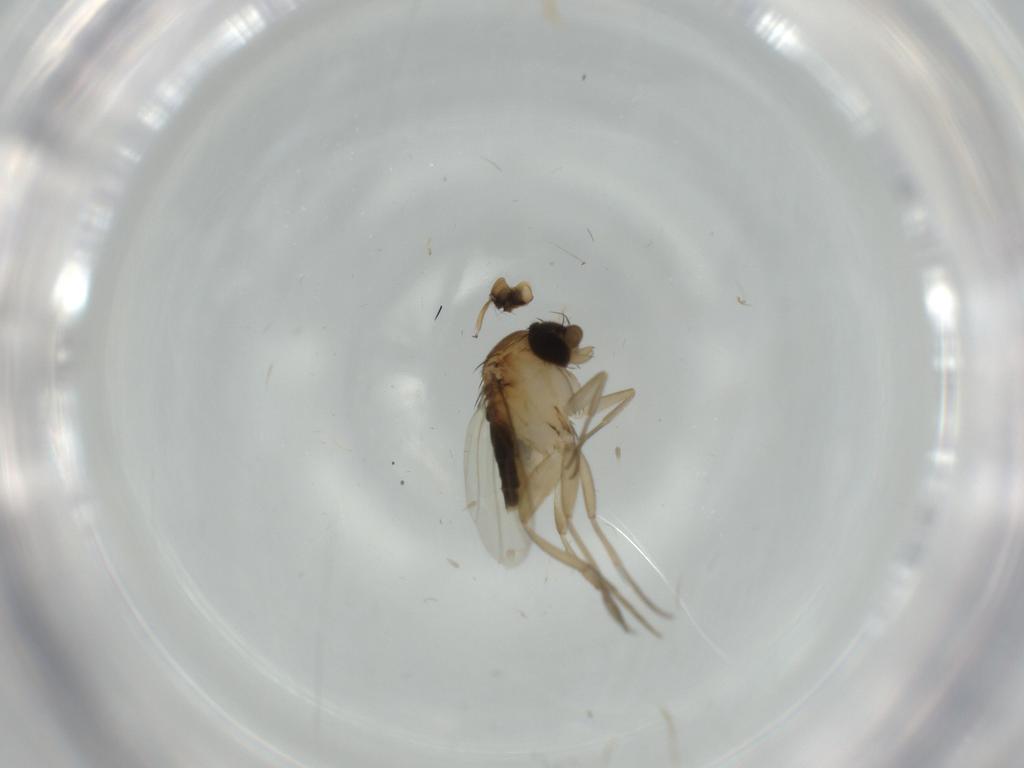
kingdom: Animalia
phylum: Arthropoda
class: Insecta
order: Diptera
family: Phoridae
